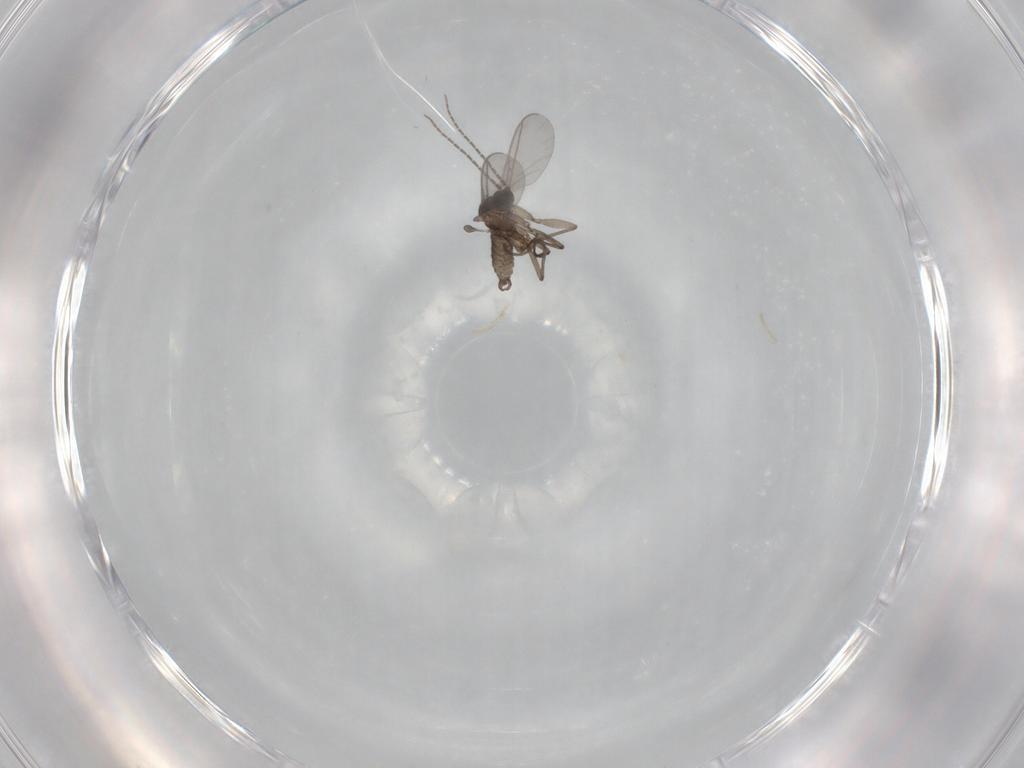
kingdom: Animalia
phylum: Arthropoda
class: Insecta
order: Diptera
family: Sciaridae
